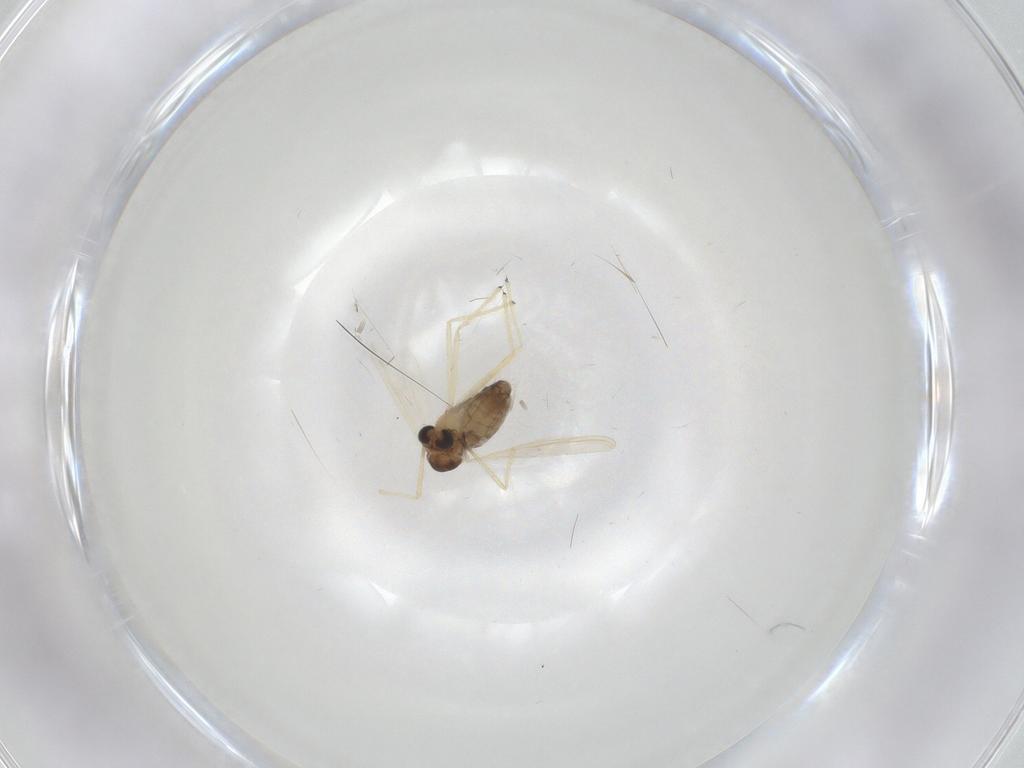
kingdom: Animalia
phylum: Arthropoda
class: Insecta
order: Diptera
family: Chironomidae
